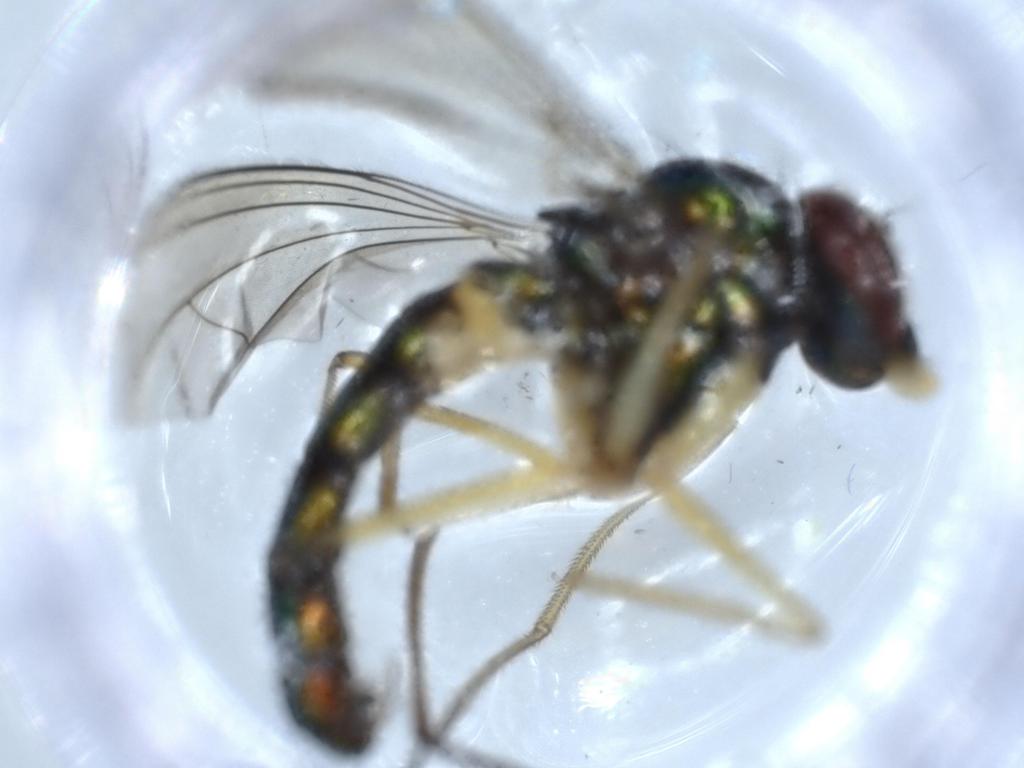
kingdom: Animalia
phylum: Arthropoda
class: Insecta
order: Diptera
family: Dolichopodidae
